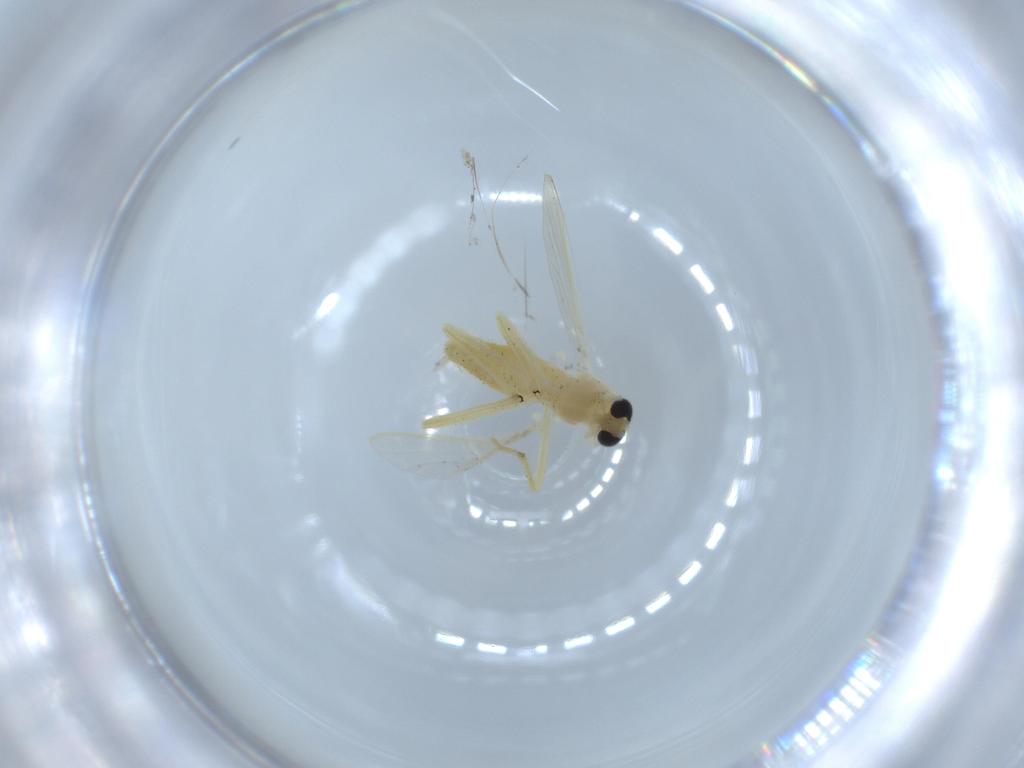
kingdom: Animalia
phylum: Arthropoda
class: Insecta
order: Diptera
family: Chironomidae
